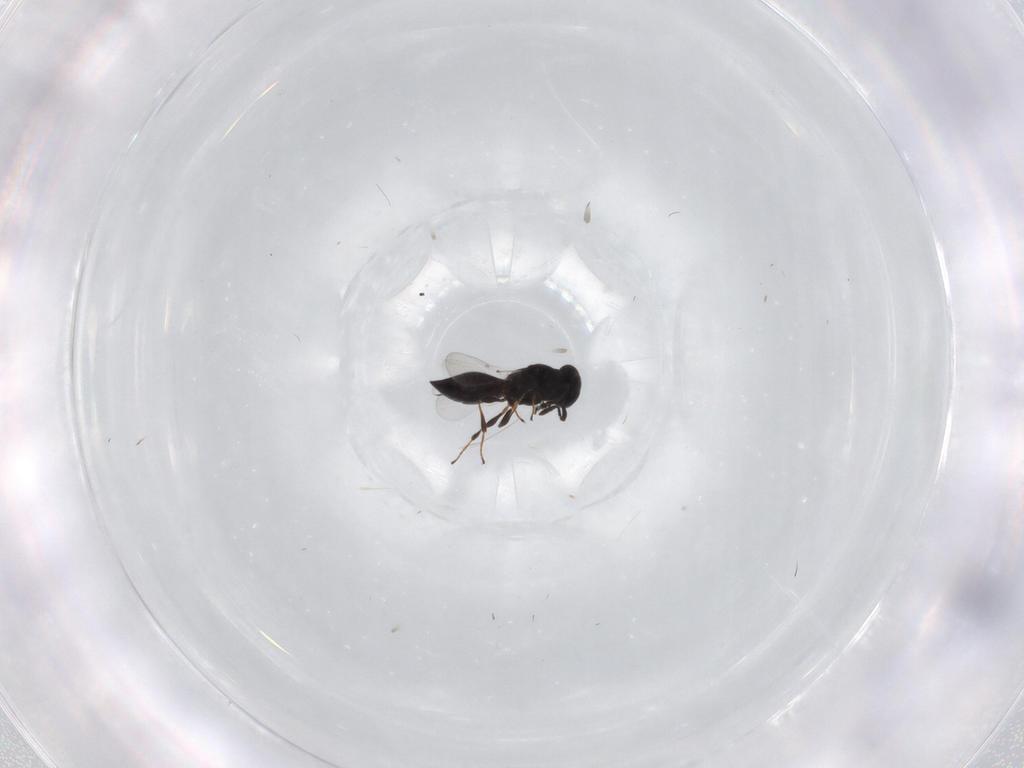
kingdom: Animalia
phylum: Arthropoda
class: Insecta
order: Hymenoptera
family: Platygastridae
